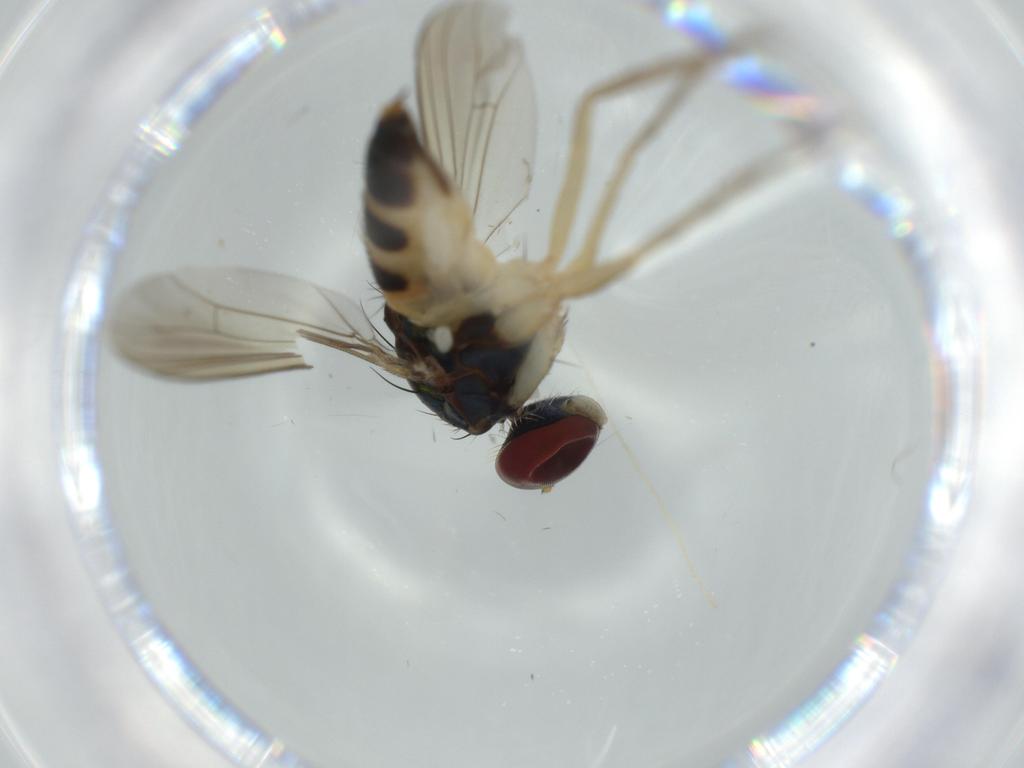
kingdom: Animalia
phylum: Arthropoda
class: Insecta
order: Diptera
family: Dolichopodidae
